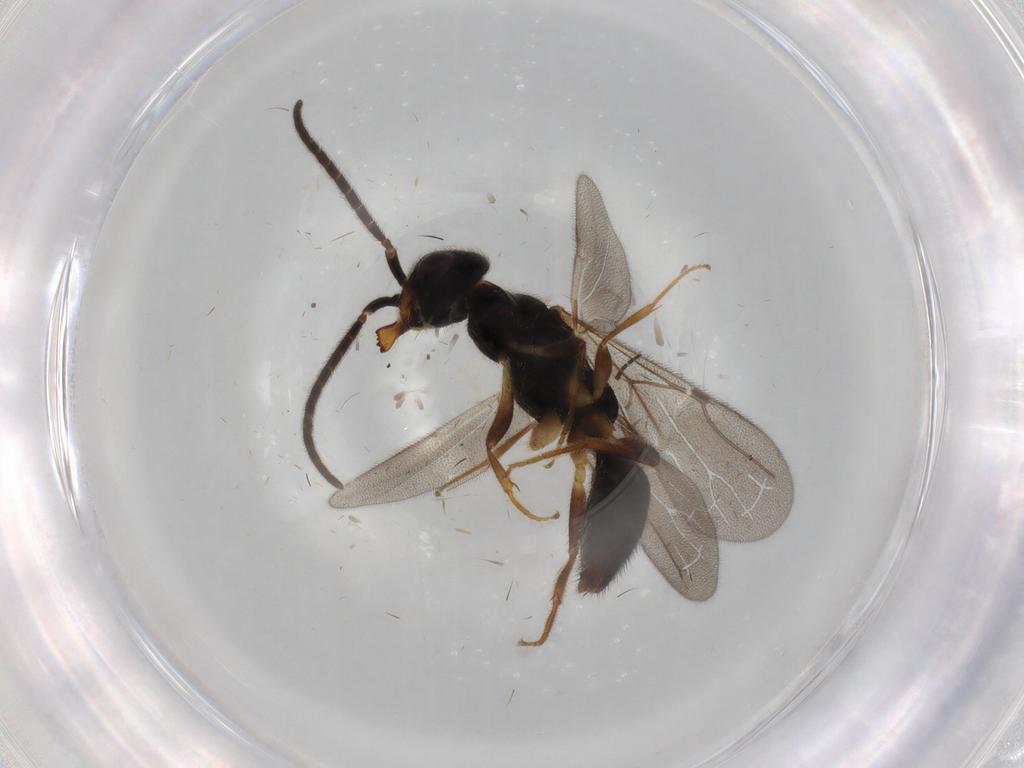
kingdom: Animalia
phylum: Arthropoda
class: Insecta
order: Hymenoptera
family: Bethylidae
